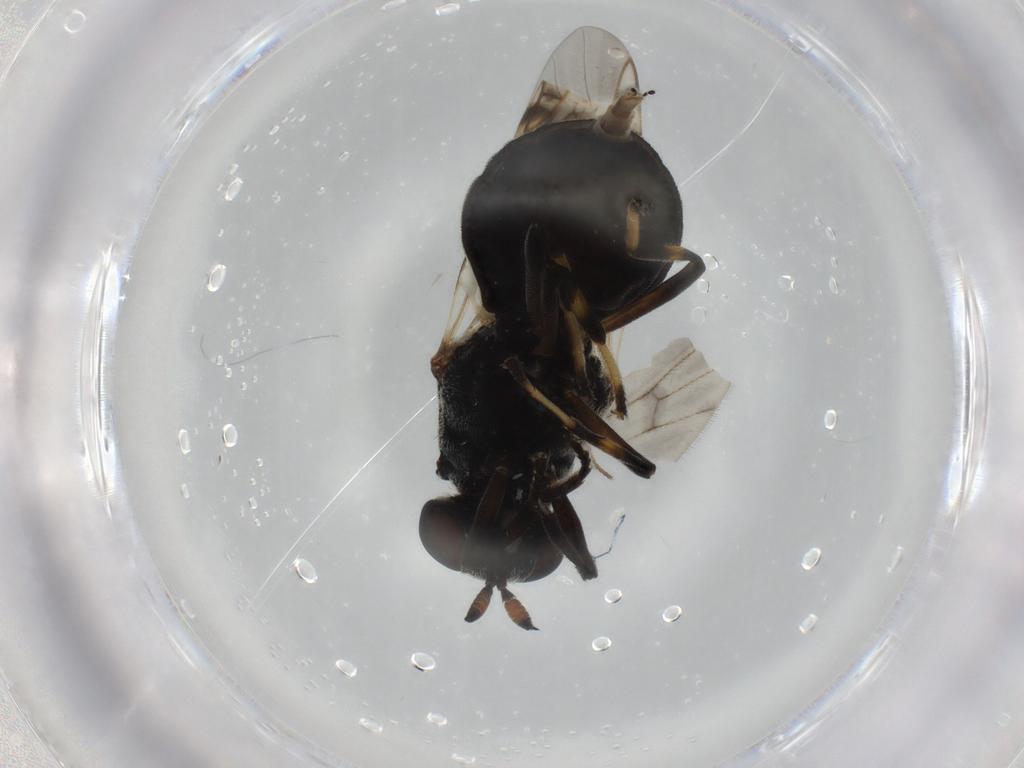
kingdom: Animalia
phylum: Arthropoda
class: Insecta
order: Diptera
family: Stratiomyidae
